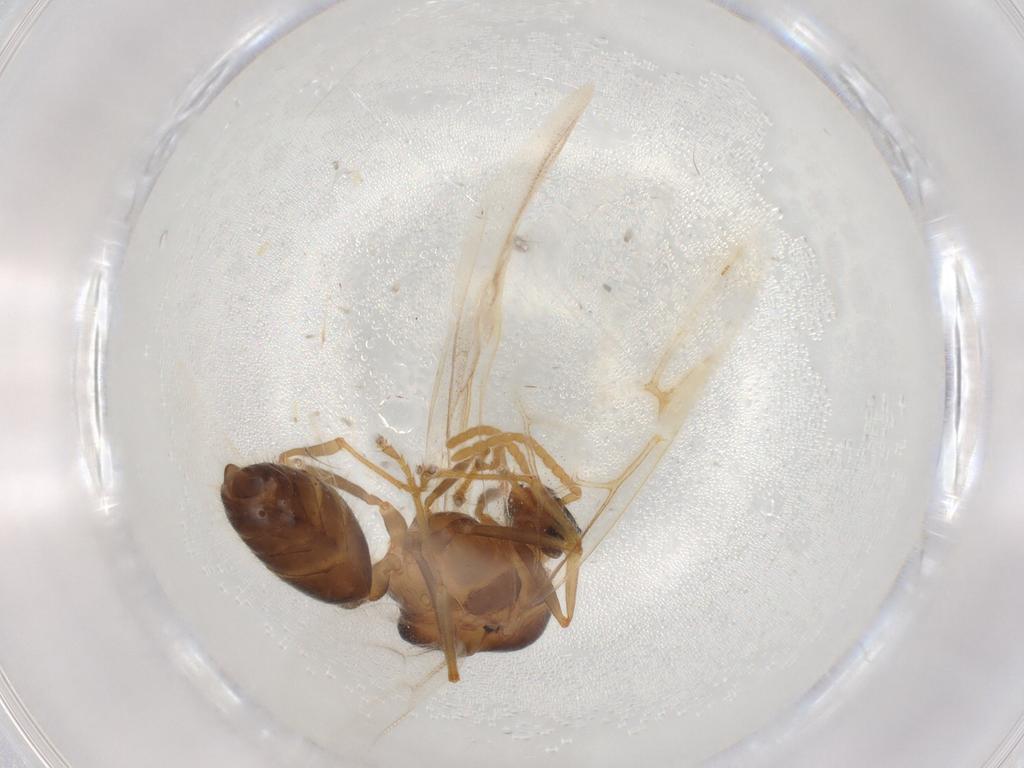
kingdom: Animalia
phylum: Arthropoda
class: Insecta
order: Hymenoptera
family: Formicidae
